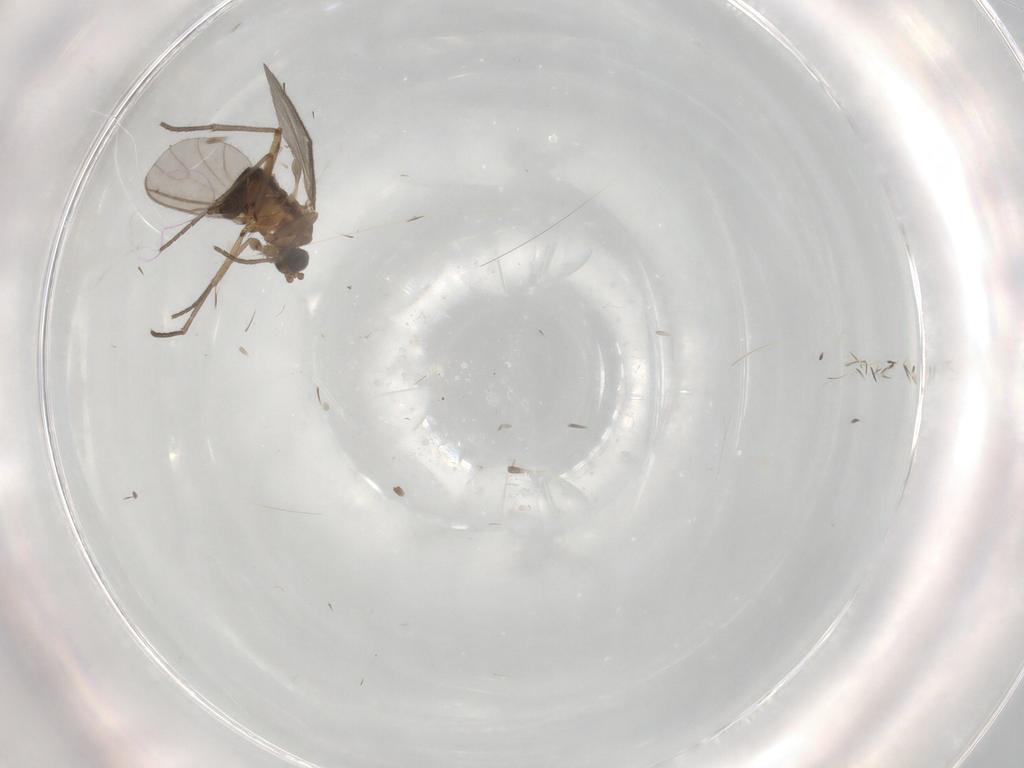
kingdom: Animalia
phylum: Arthropoda
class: Insecta
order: Diptera
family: Sciaridae
